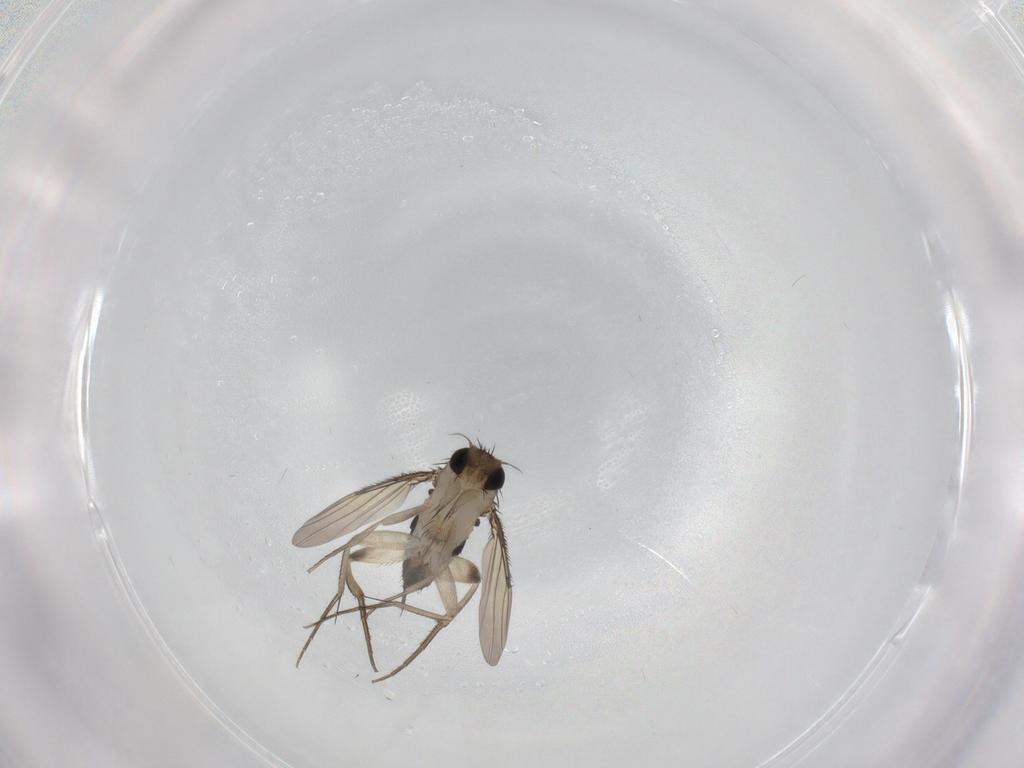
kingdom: Animalia
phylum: Arthropoda
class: Insecta
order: Diptera
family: Phoridae
